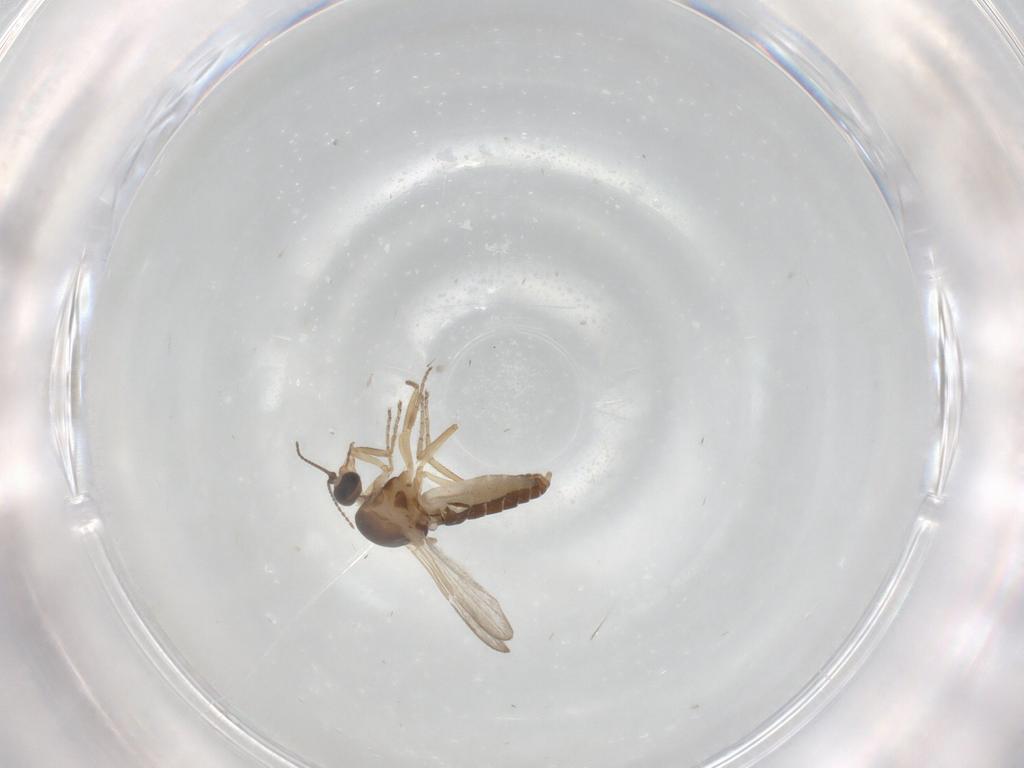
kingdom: Animalia
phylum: Arthropoda
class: Insecta
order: Diptera
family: Ceratopogonidae
